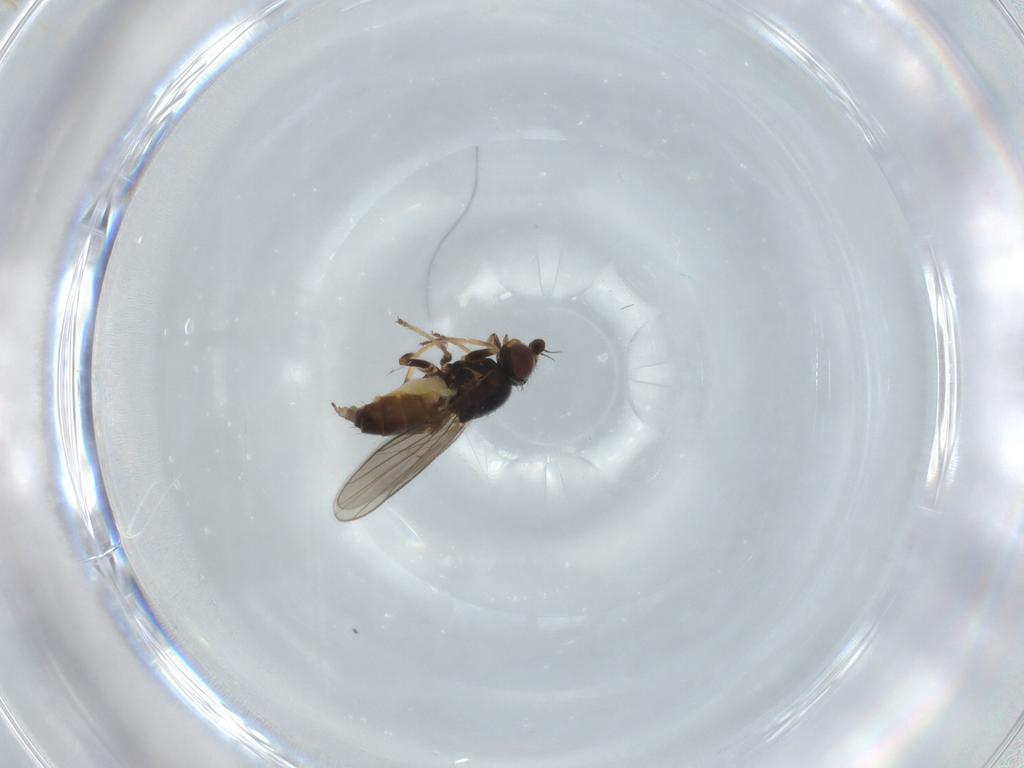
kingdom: Animalia
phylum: Arthropoda
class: Insecta
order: Diptera
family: Chloropidae
